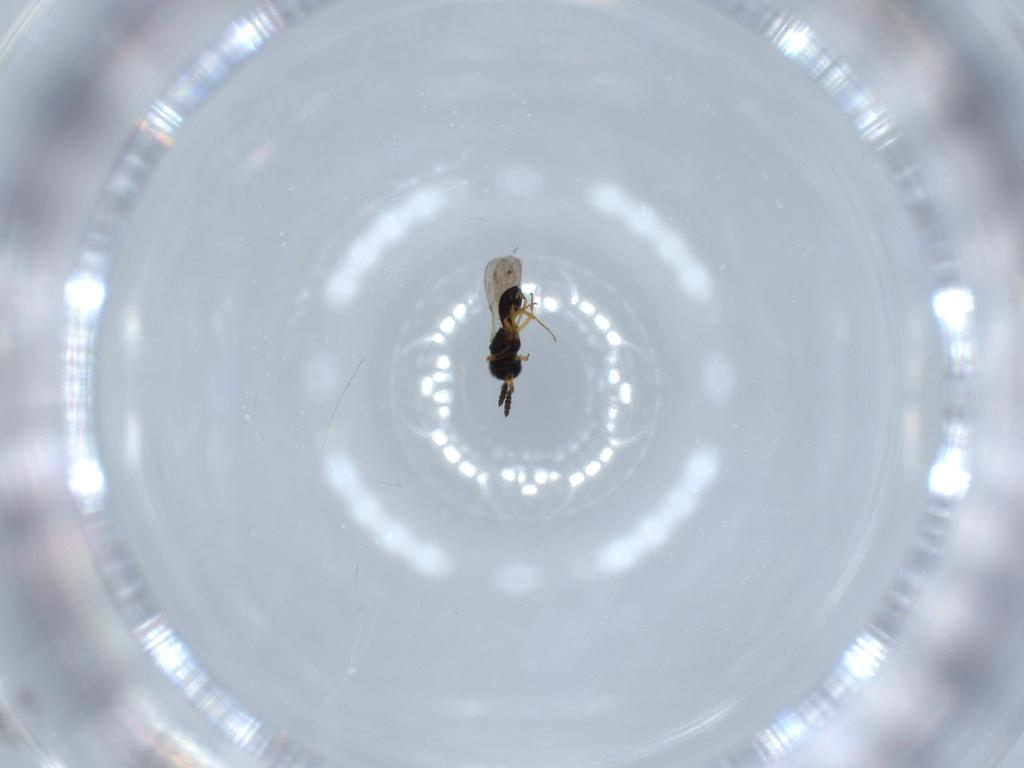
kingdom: Animalia
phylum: Arthropoda
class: Insecta
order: Hymenoptera
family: Scelionidae
